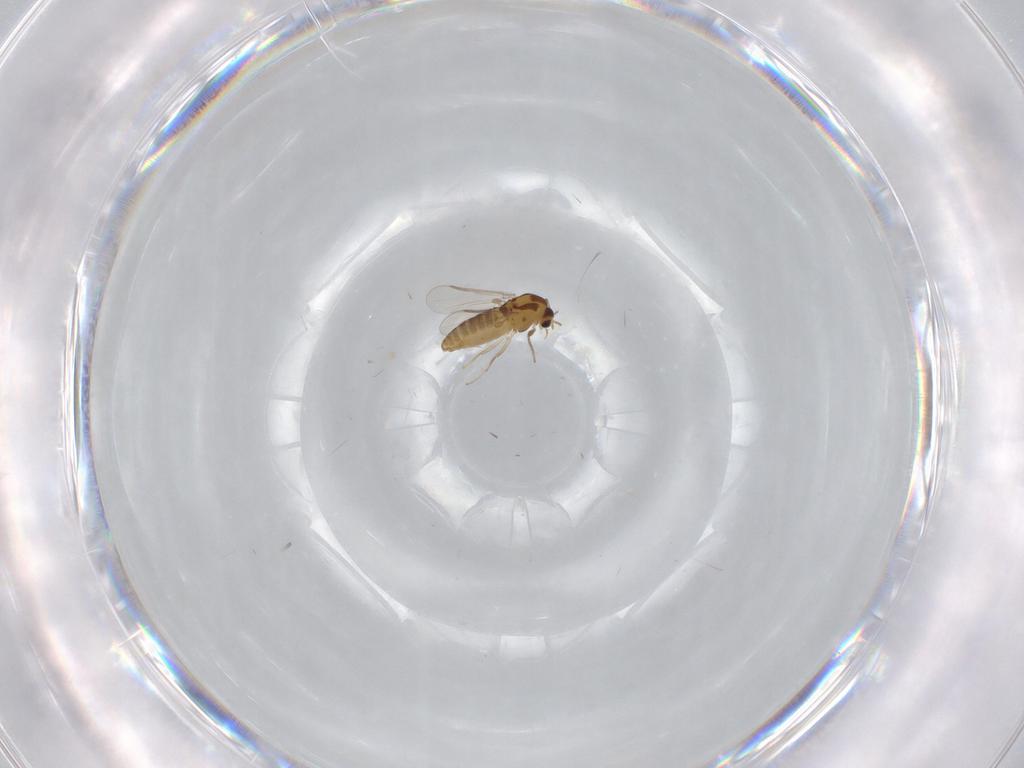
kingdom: Animalia
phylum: Arthropoda
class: Insecta
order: Diptera
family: Chironomidae
